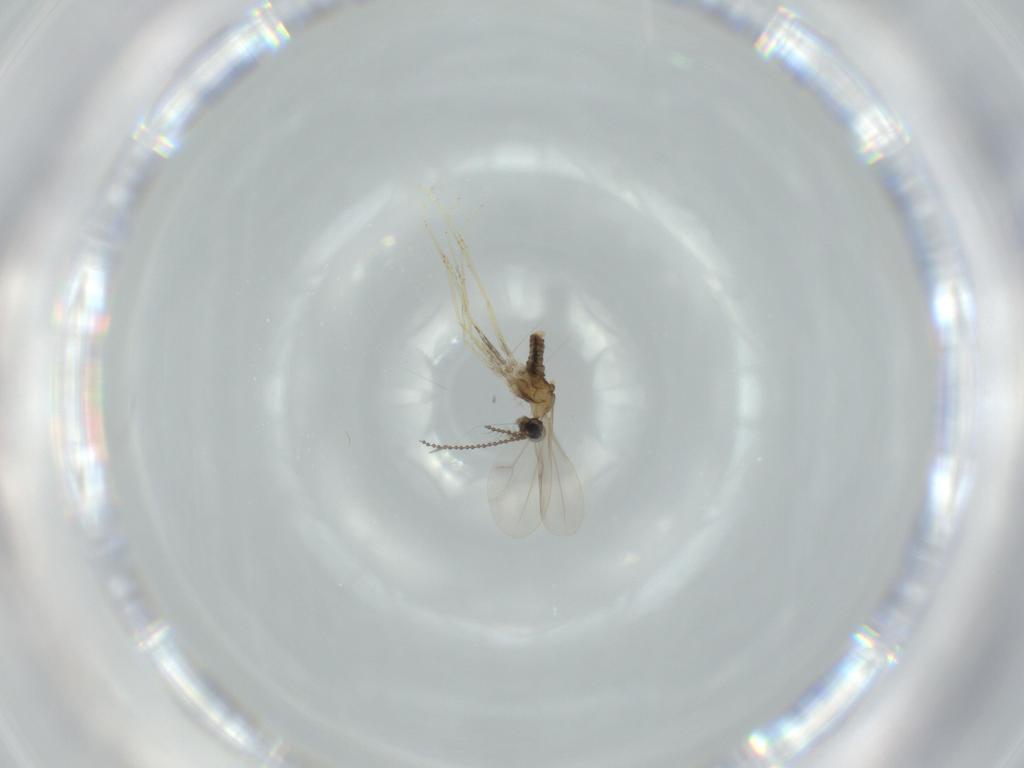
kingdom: Animalia
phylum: Arthropoda
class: Insecta
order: Diptera
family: Cecidomyiidae
